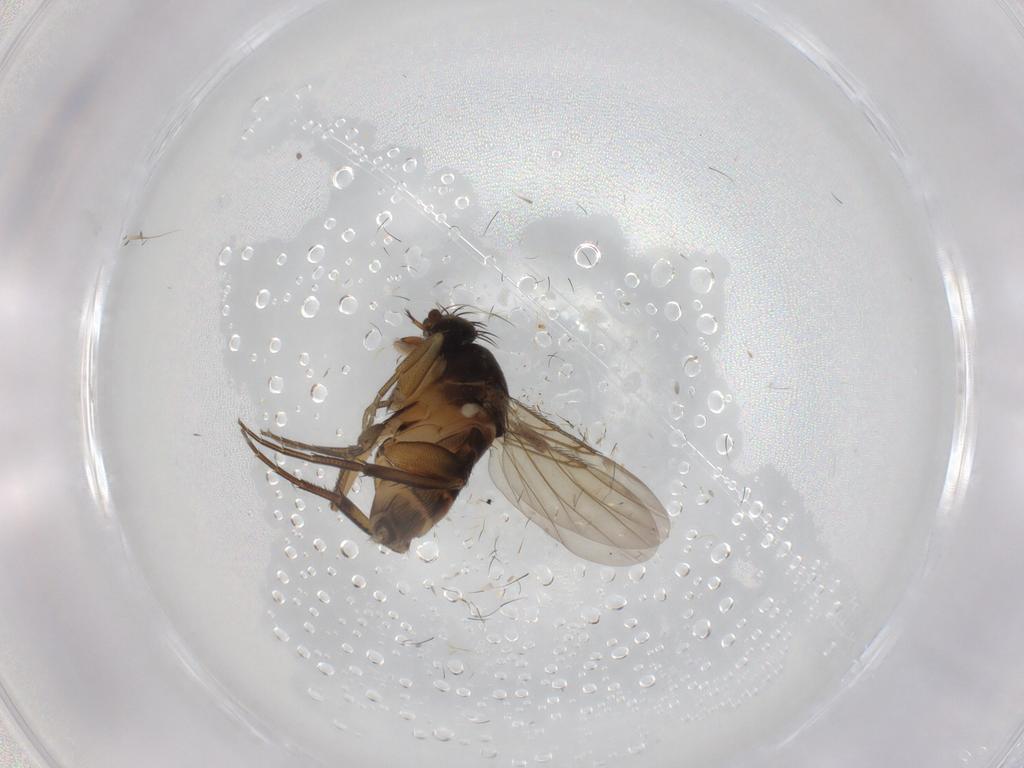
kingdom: Animalia
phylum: Arthropoda
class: Insecta
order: Diptera
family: Phoridae
